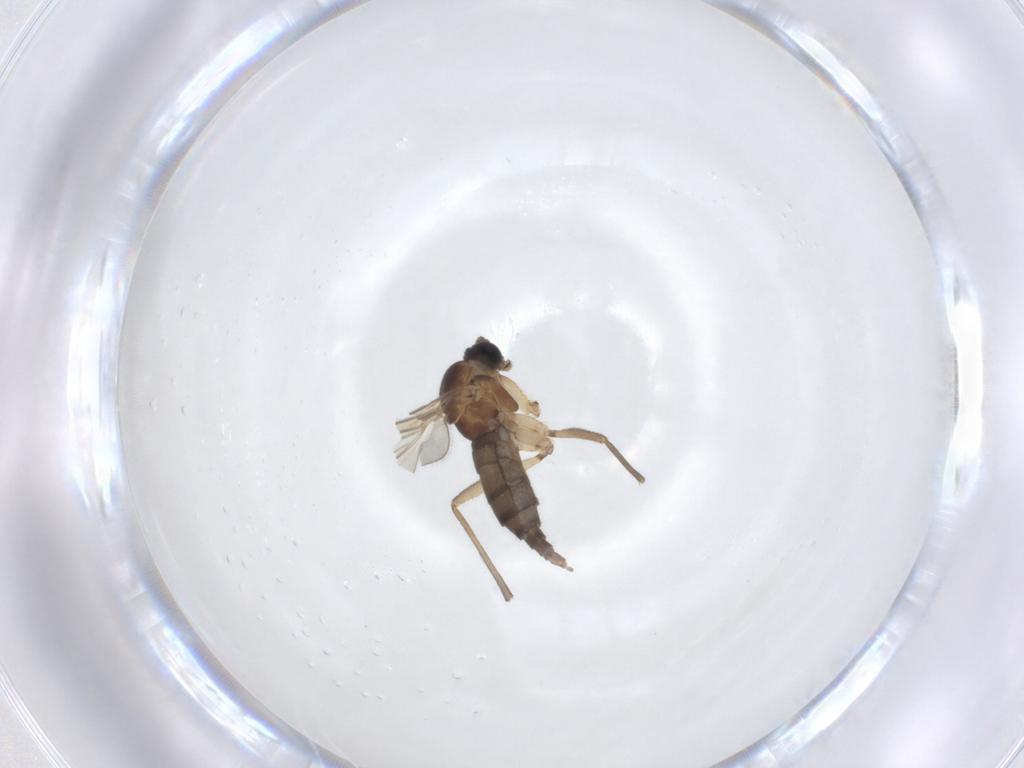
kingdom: Animalia
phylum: Arthropoda
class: Insecta
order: Diptera
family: Sciaridae
